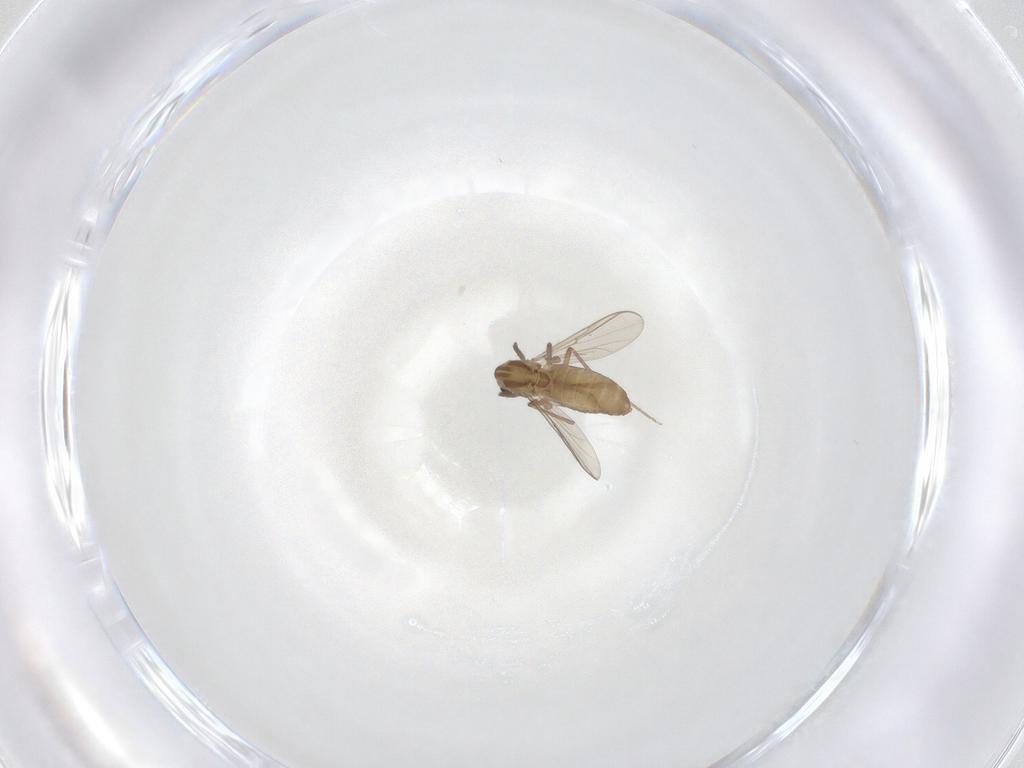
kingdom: Animalia
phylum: Arthropoda
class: Insecta
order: Diptera
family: Chironomidae
